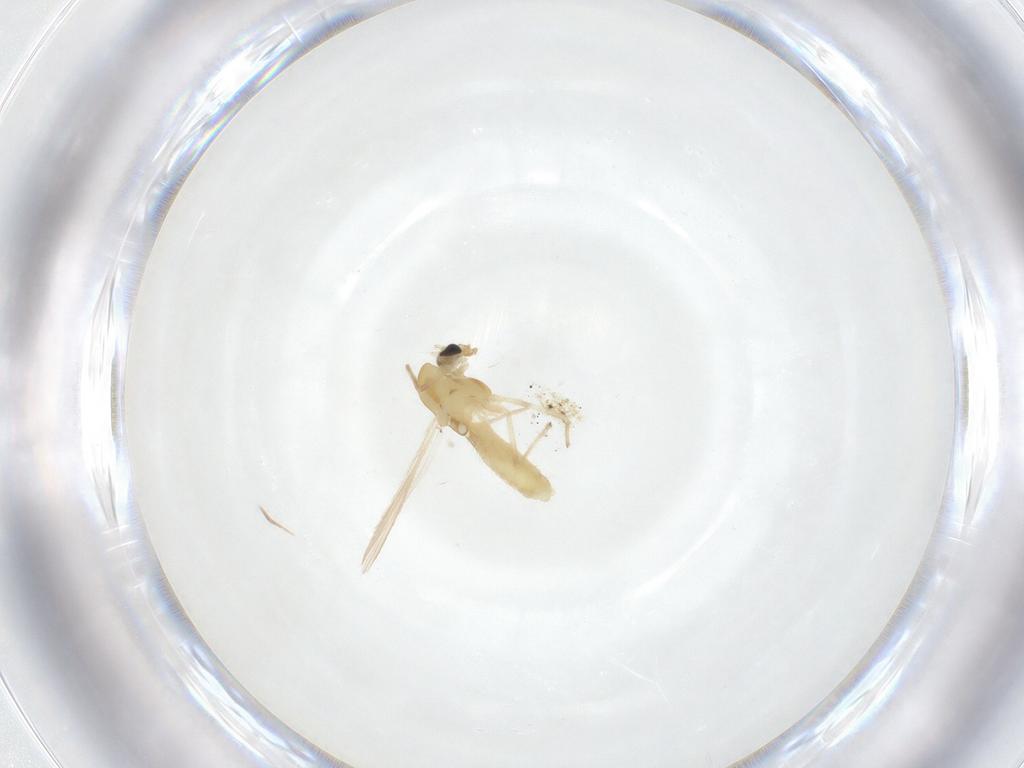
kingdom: Animalia
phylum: Arthropoda
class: Insecta
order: Diptera
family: Chironomidae
